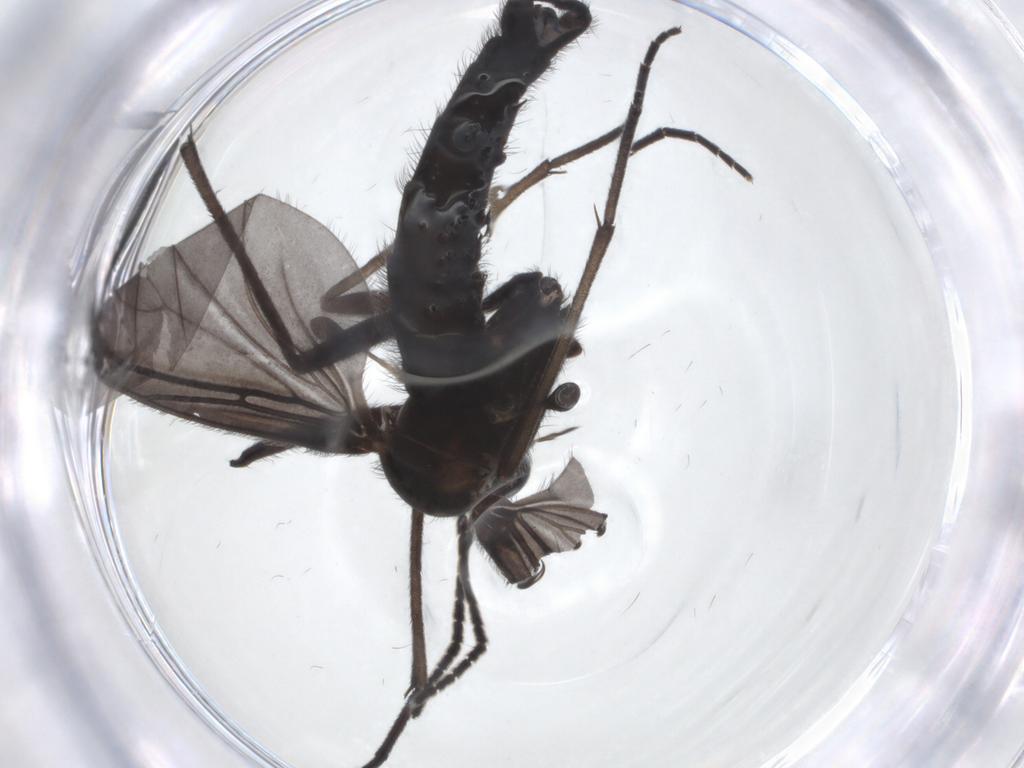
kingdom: Animalia
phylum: Arthropoda
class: Insecta
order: Diptera
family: Sciaridae
